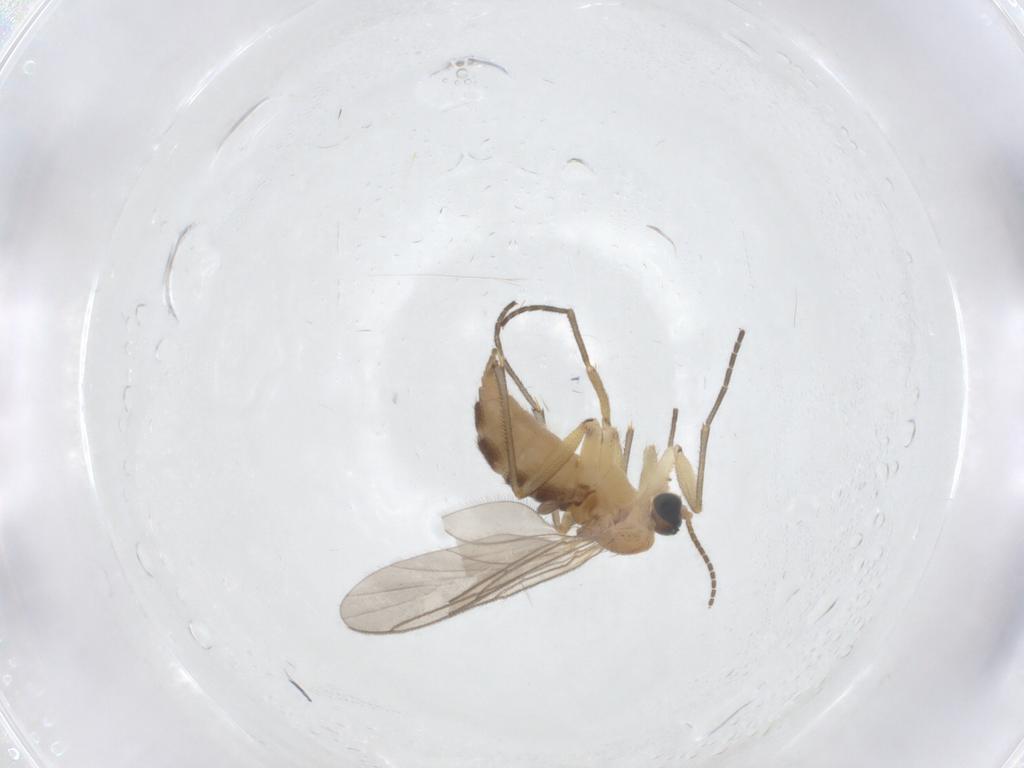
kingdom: Animalia
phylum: Arthropoda
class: Insecta
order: Diptera
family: Sciaridae
